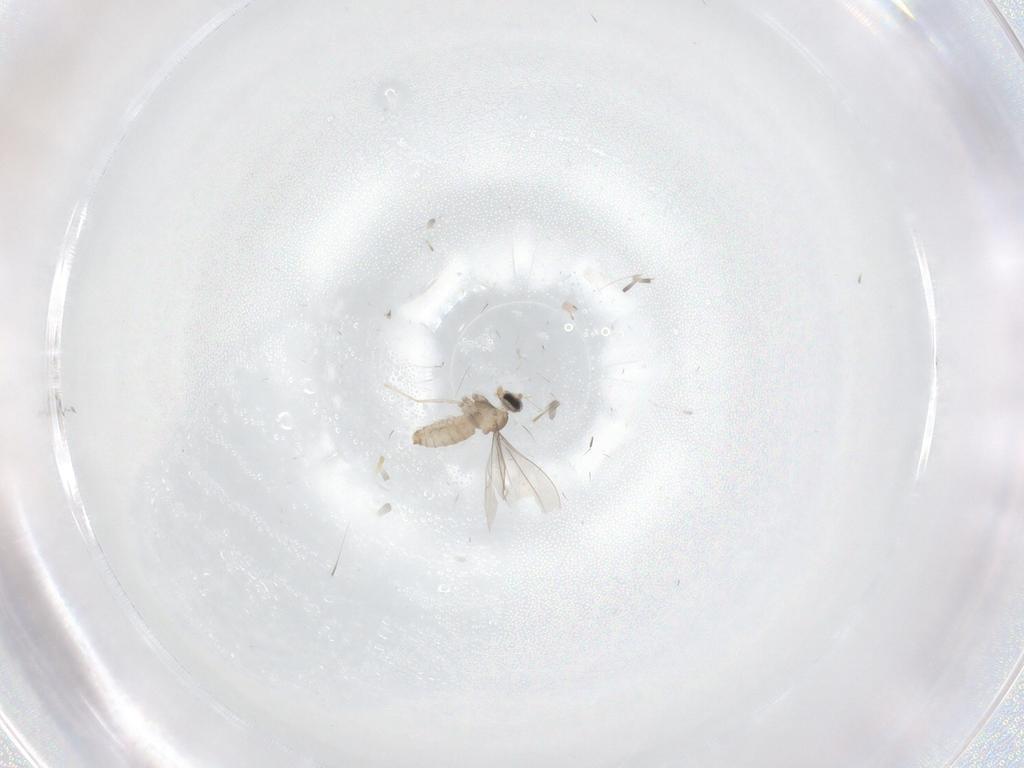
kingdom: Animalia
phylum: Arthropoda
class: Insecta
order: Diptera
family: Cecidomyiidae
